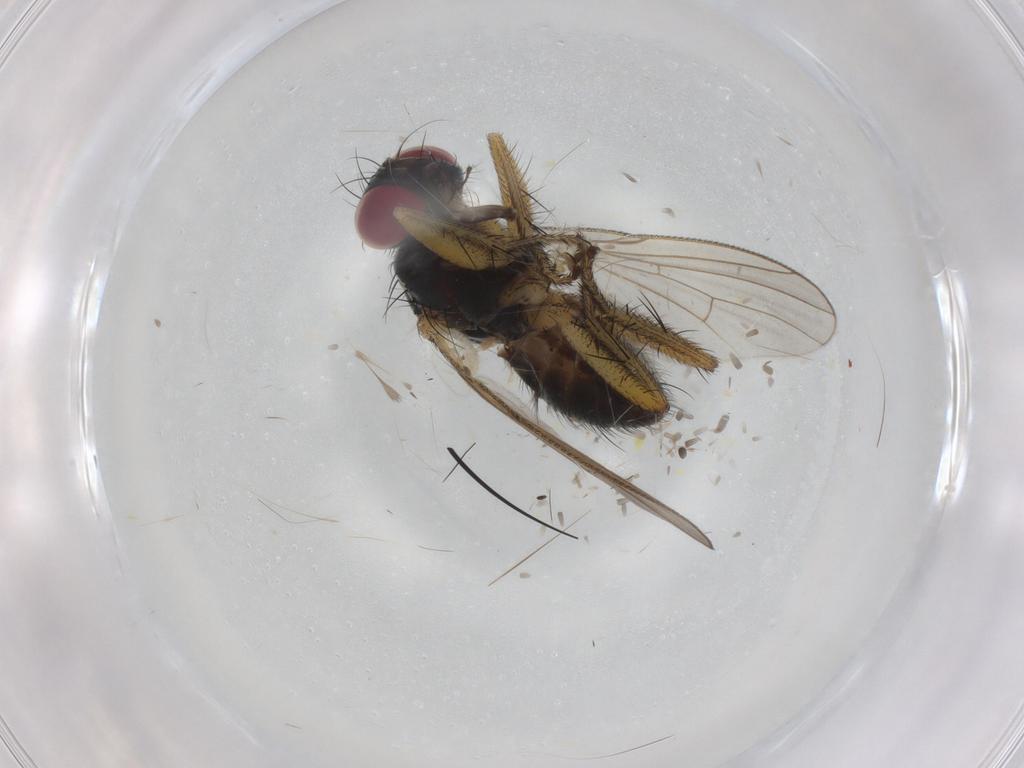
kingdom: Animalia
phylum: Arthropoda
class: Insecta
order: Diptera
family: Muscidae
